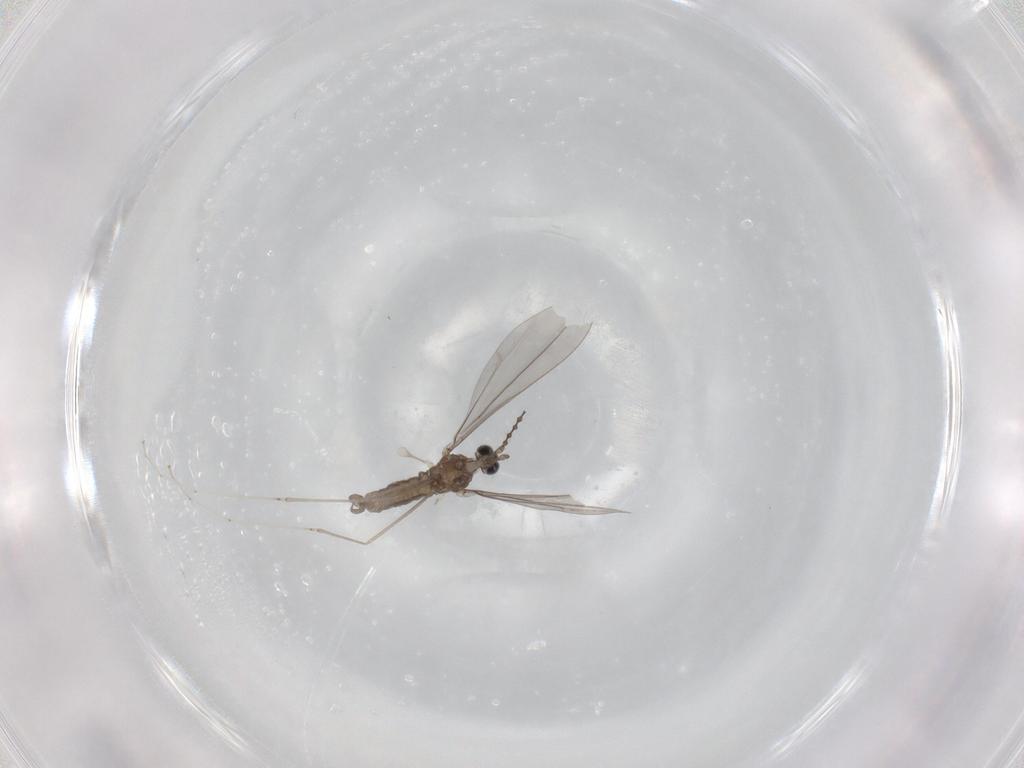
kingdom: Animalia
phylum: Arthropoda
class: Insecta
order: Diptera
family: Cecidomyiidae
